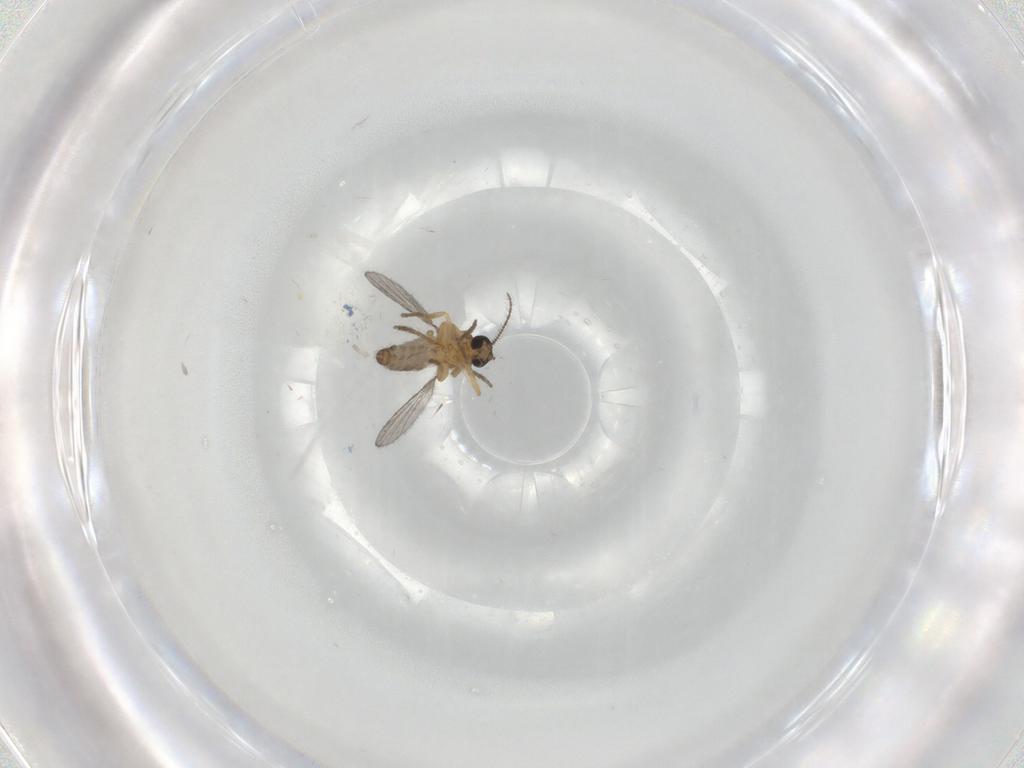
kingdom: Animalia
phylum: Arthropoda
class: Insecta
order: Diptera
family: Ceratopogonidae
